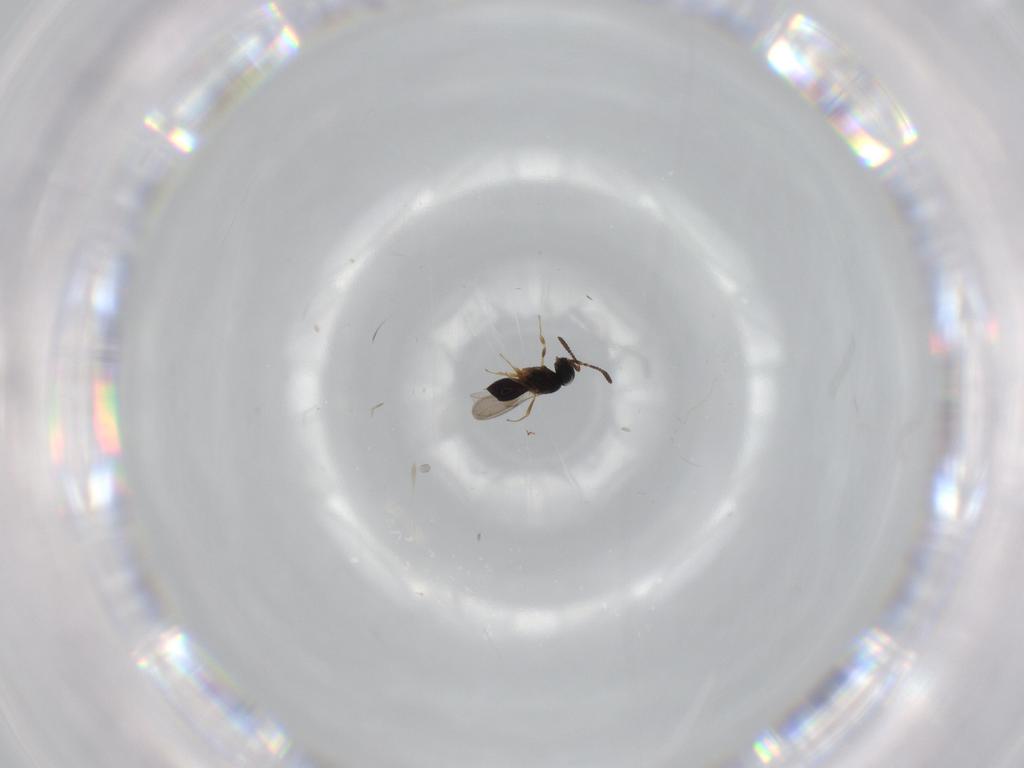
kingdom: Animalia
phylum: Arthropoda
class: Insecta
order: Hymenoptera
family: Scelionidae
